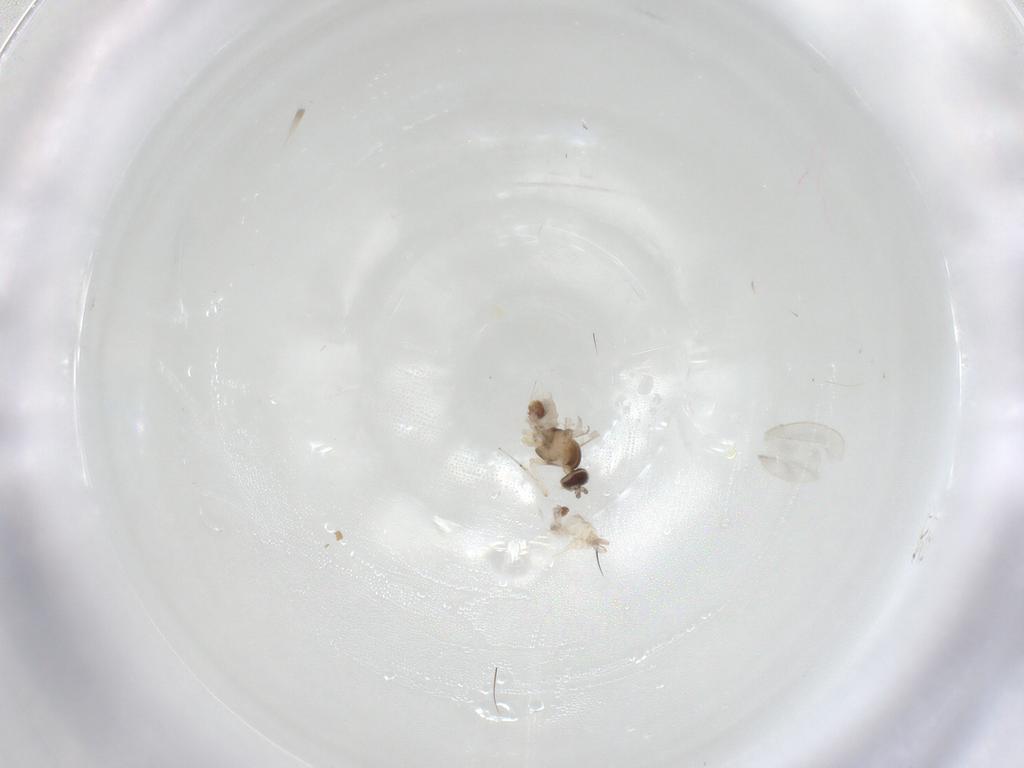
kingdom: Animalia
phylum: Arthropoda
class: Insecta
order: Diptera
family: Cecidomyiidae
